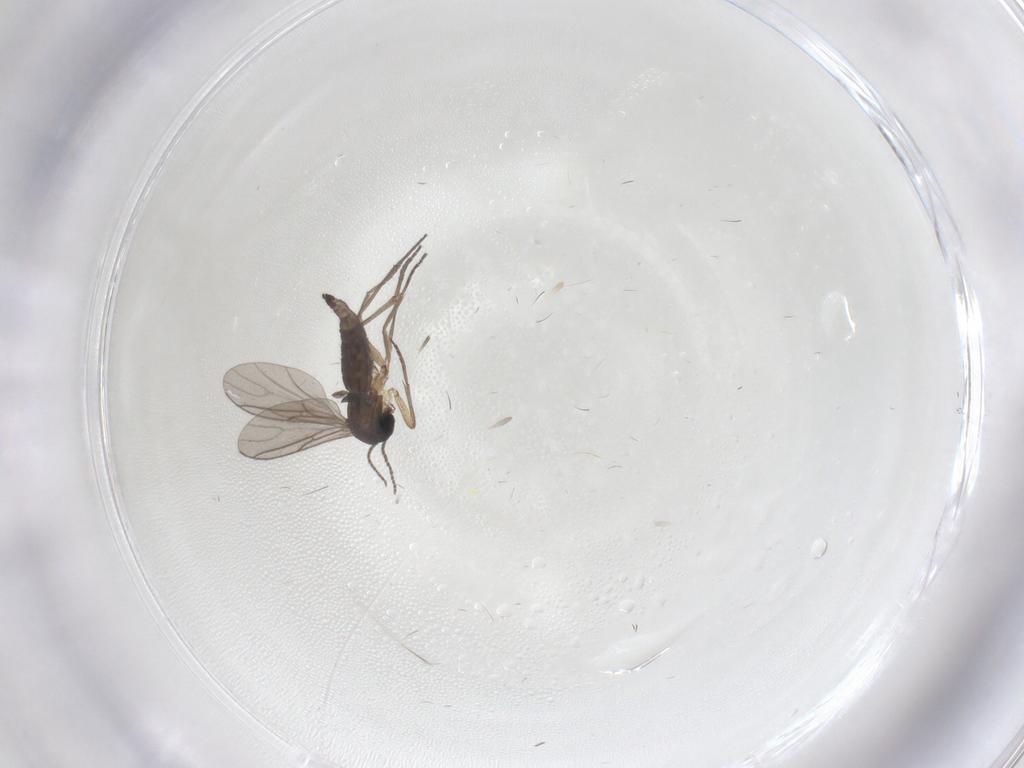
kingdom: Animalia
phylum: Arthropoda
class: Insecta
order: Diptera
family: Sciaridae
